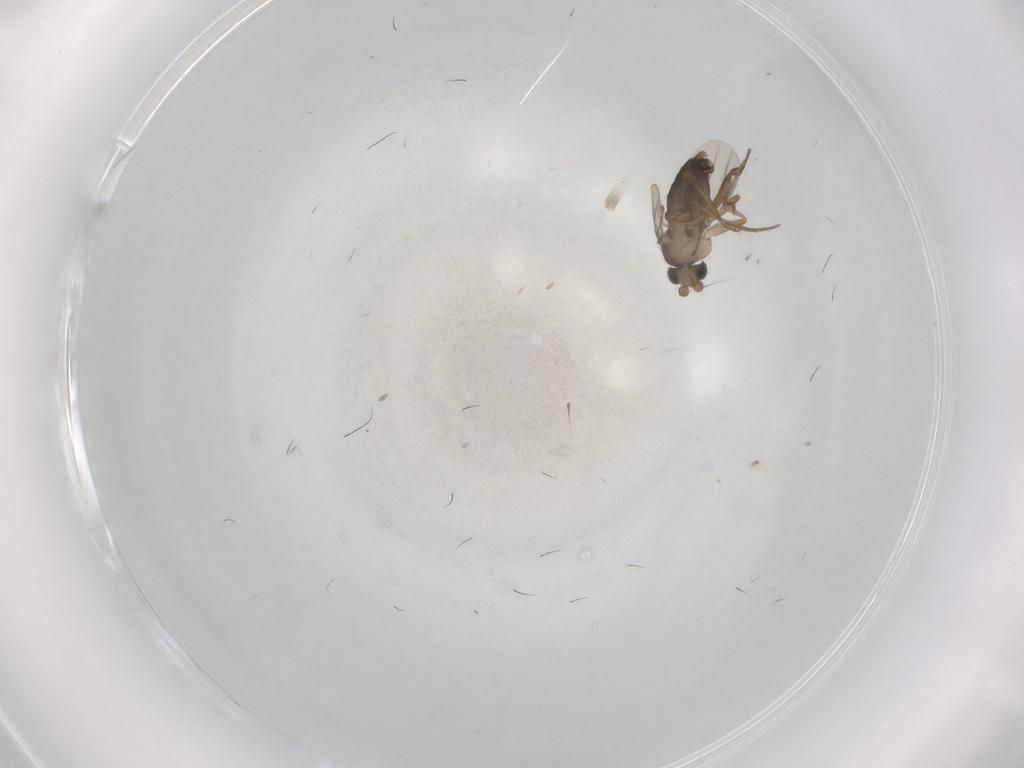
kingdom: Animalia
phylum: Arthropoda
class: Insecta
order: Diptera
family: Phoridae
